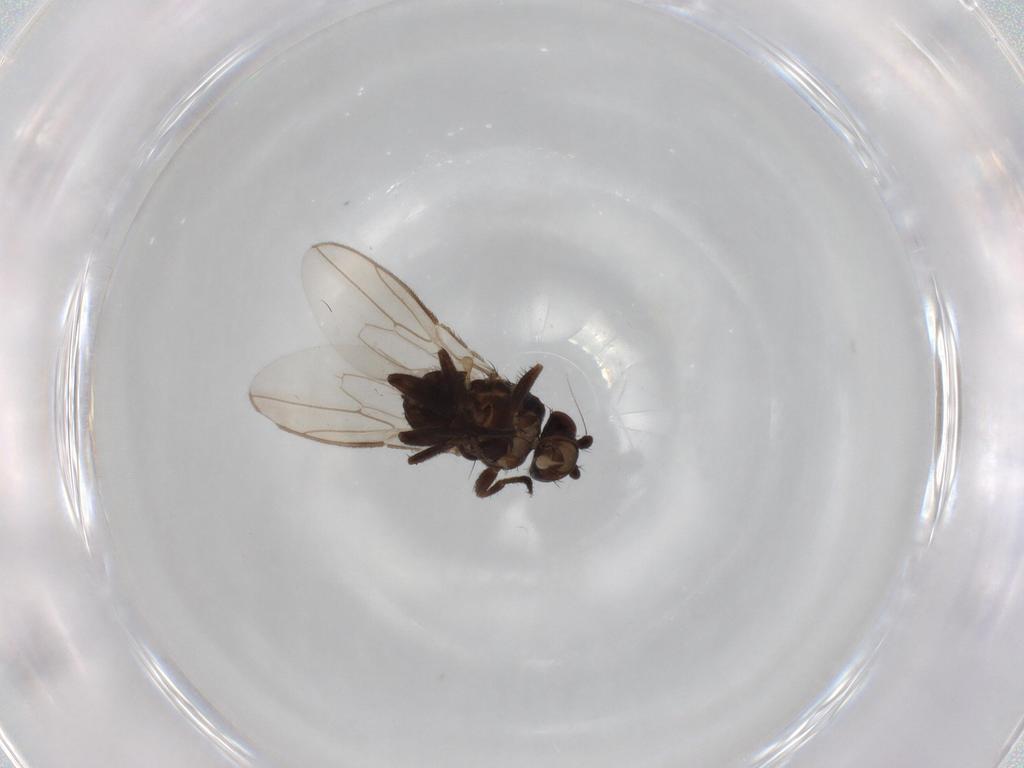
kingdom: Animalia
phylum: Arthropoda
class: Insecta
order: Diptera
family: Sphaeroceridae
